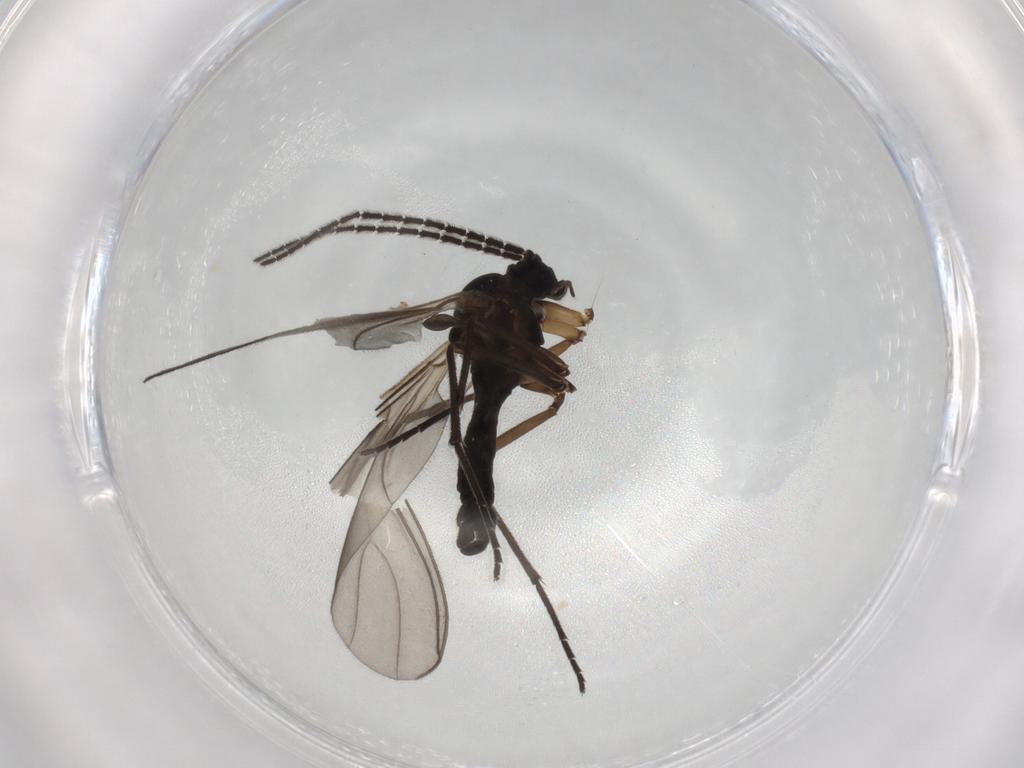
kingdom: Animalia
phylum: Arthropoda
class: Insecta
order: Diptera
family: Sciaridae
